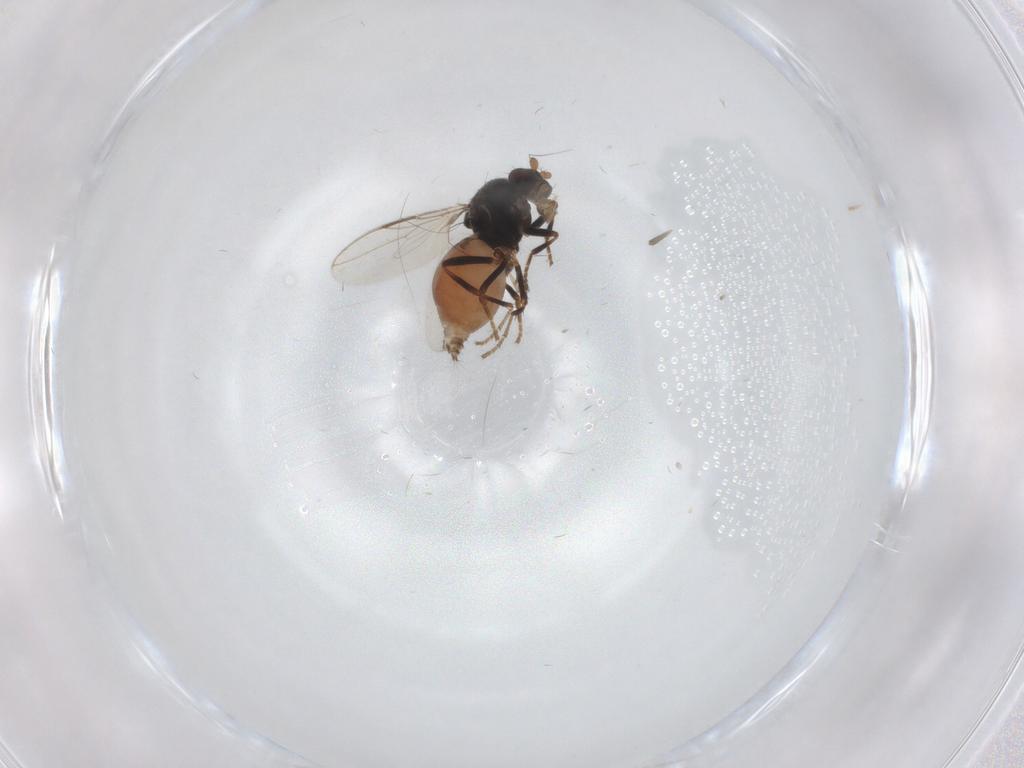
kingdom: Animalia
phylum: Arthropoda
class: Insecta
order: Diptera
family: Sphaeroceridae
